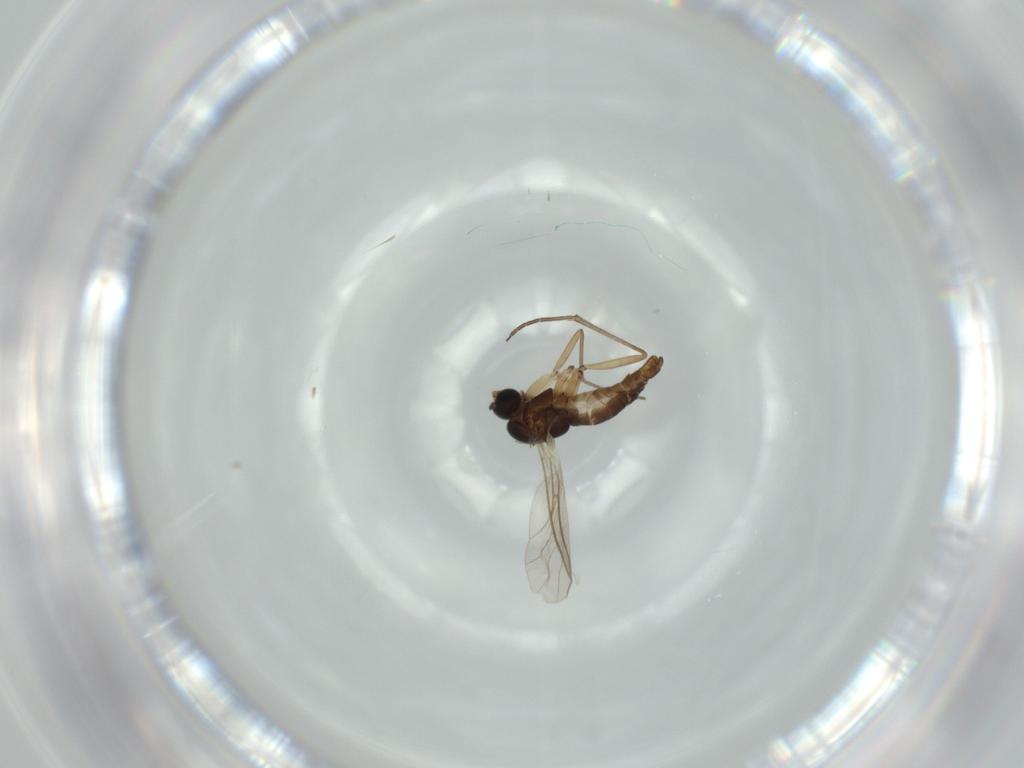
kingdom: Animalia
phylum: Arthropoda
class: Insecta
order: Diptera
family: Sciaridae
